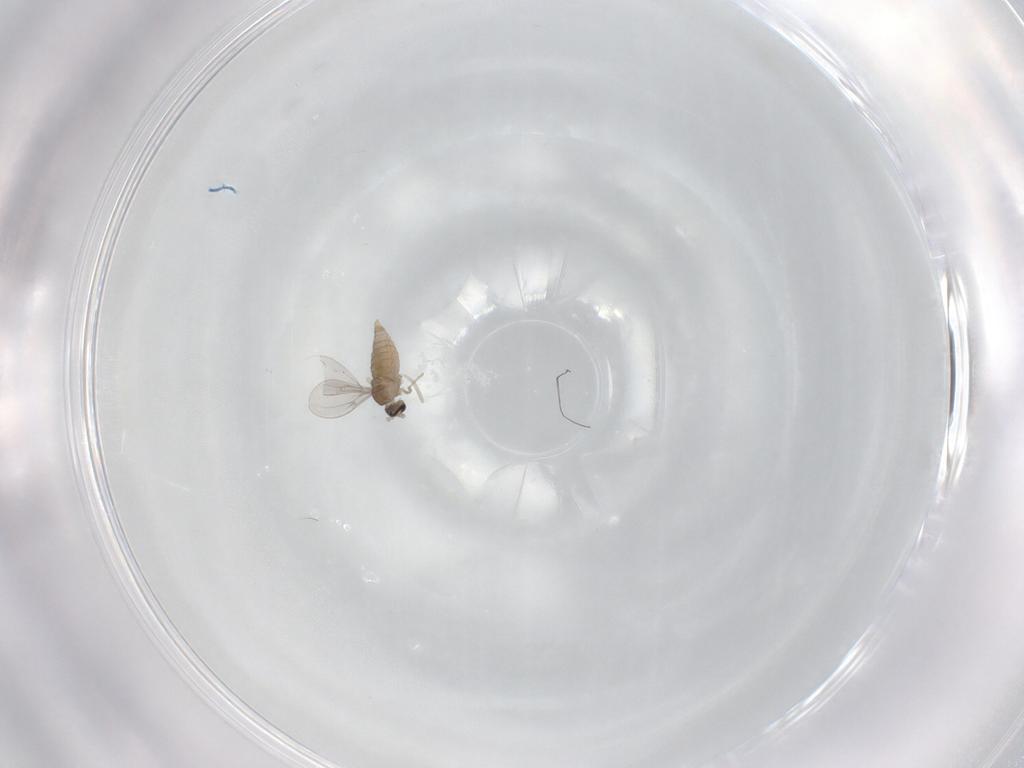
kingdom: Animalia
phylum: Arthropoda
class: Insecta
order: Diptera
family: Cecidomyiidae
